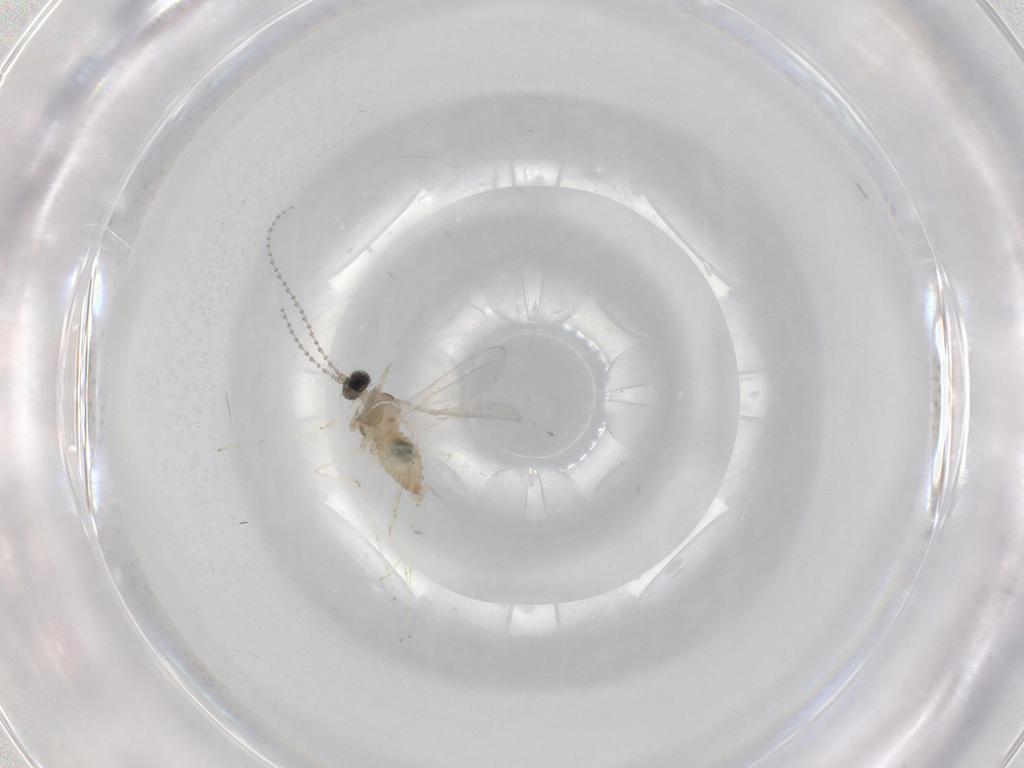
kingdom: Animalia
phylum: Arthropoda
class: Insecta
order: Diptera
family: Cecidomyiidae
